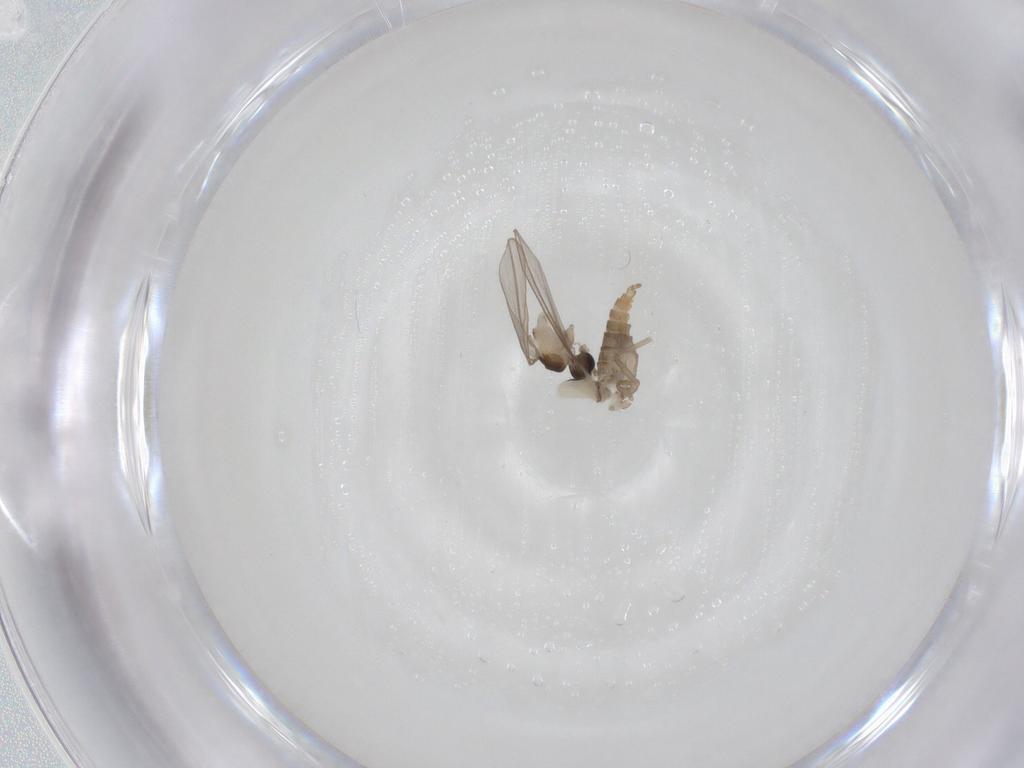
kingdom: Animalia
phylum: Arthropoda
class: Insecta
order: Diptera
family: Cecidomyiidae
